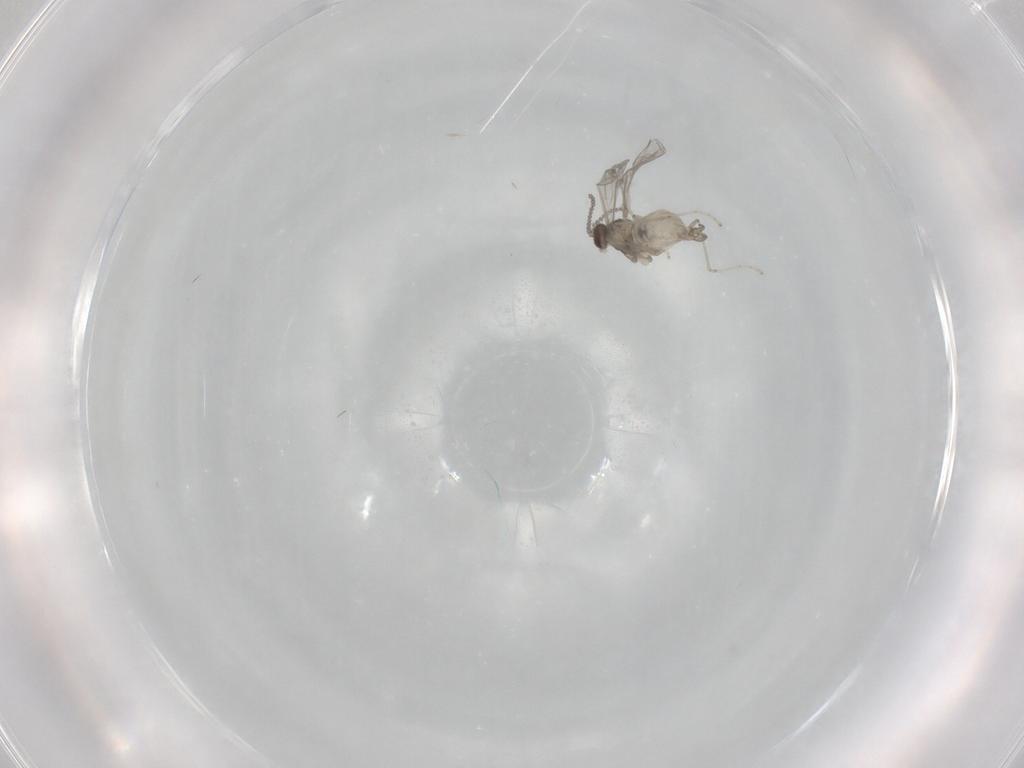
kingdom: Animalia
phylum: Arthropoda
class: Insecta
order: Diptera
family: Cecidomyiidae
